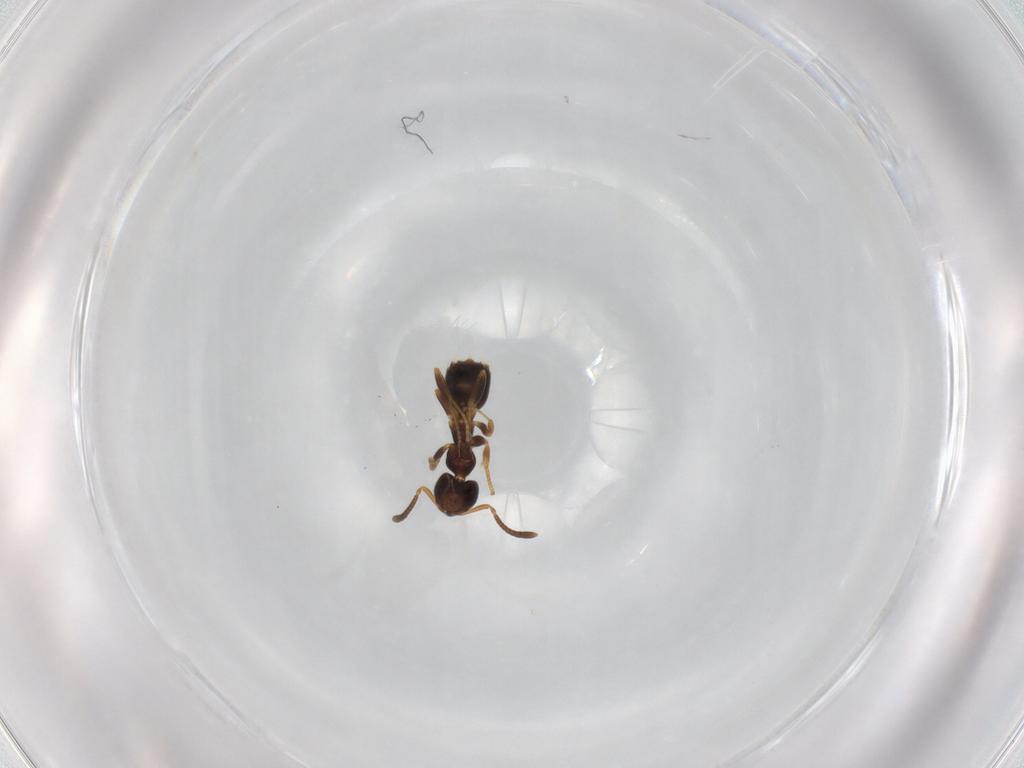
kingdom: Animalia
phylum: Arthropoda
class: Insecta
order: Hymenoptera
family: Formicidae
